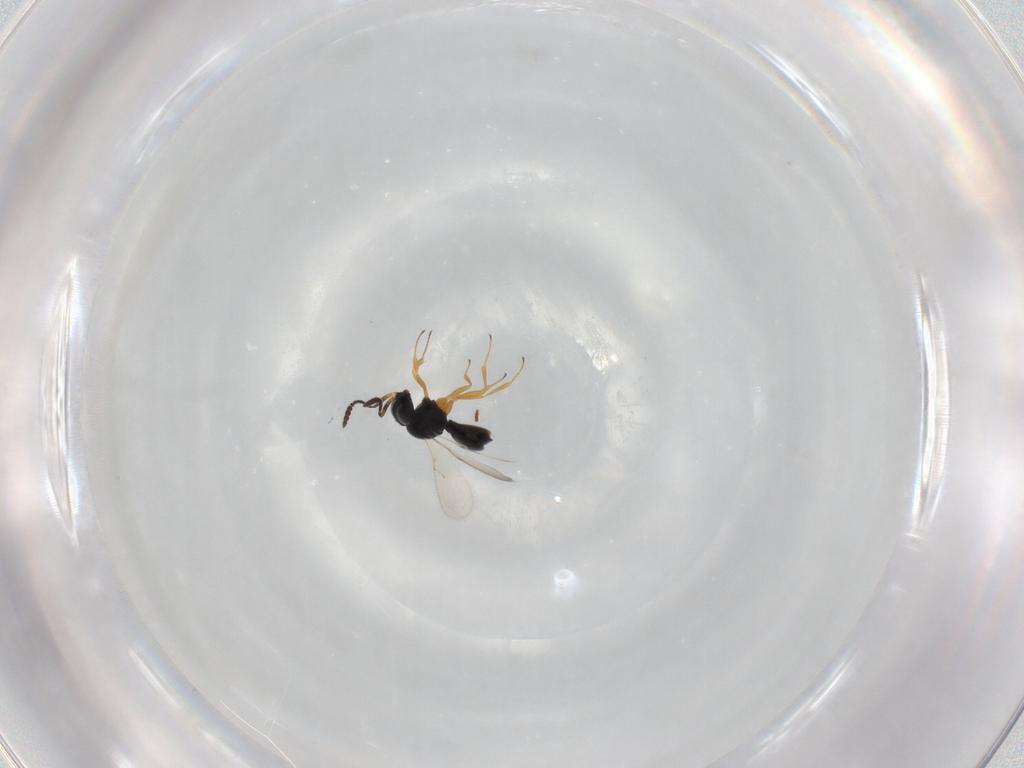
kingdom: Animalia
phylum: Arthropoda
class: Insecta
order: Hymenoptera
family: Scelionidae
